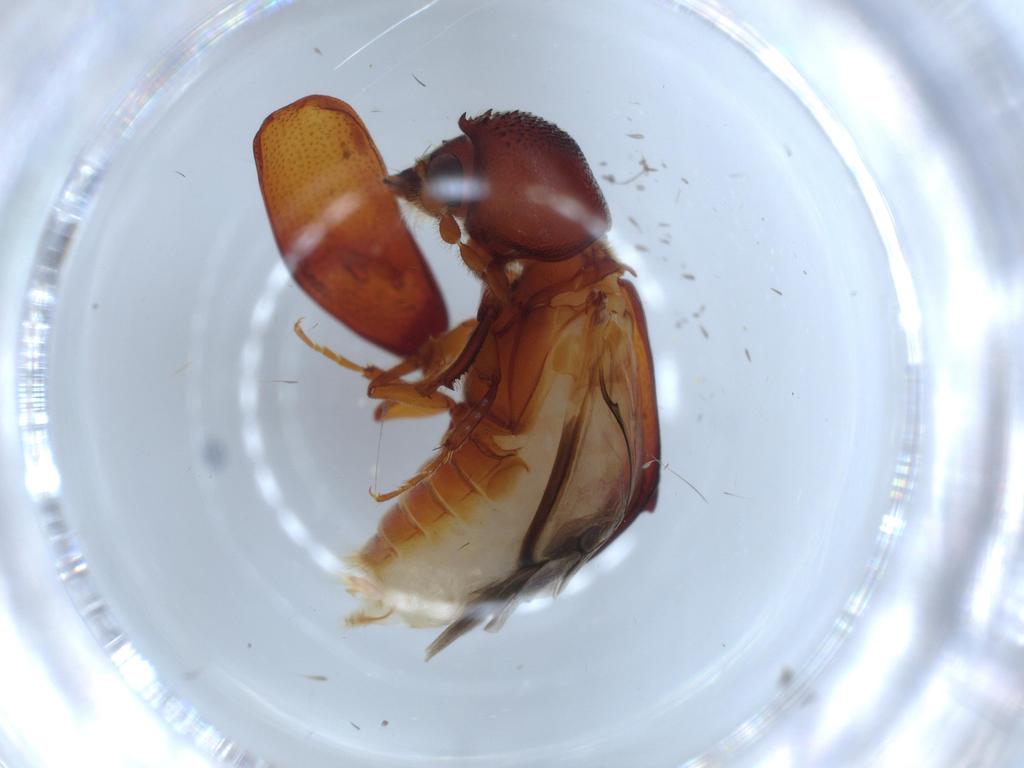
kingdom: Animalia
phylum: Arthropoda
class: Insecta
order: Coleoptera
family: Bostrichidae
